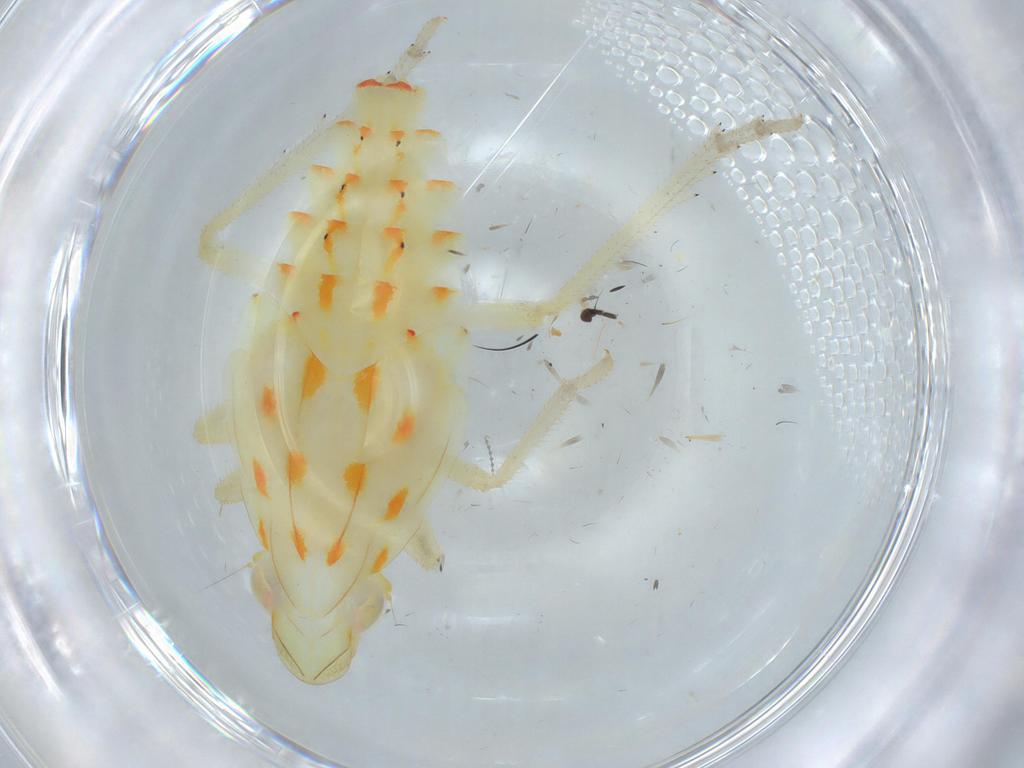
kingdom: Animalia
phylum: Arthropoda
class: Insecta
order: Hemiptera
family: Tropiduchidae
